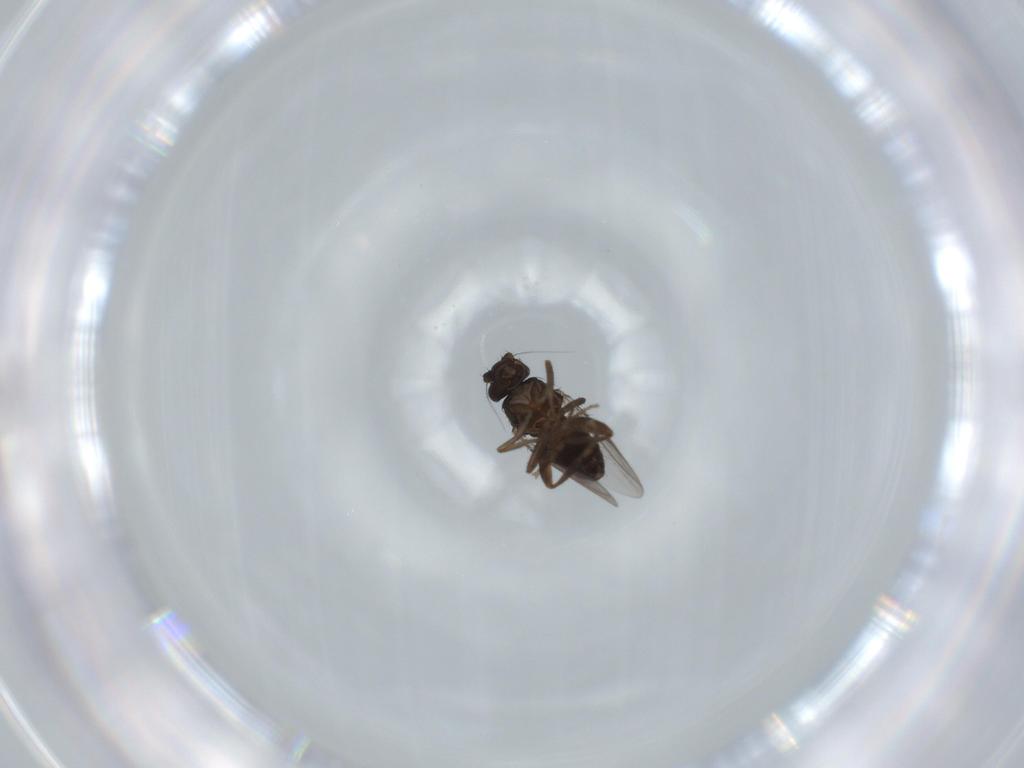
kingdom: Animalia
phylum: Arthropoda
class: Insecta
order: Diptera
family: Sphaeroceridae
